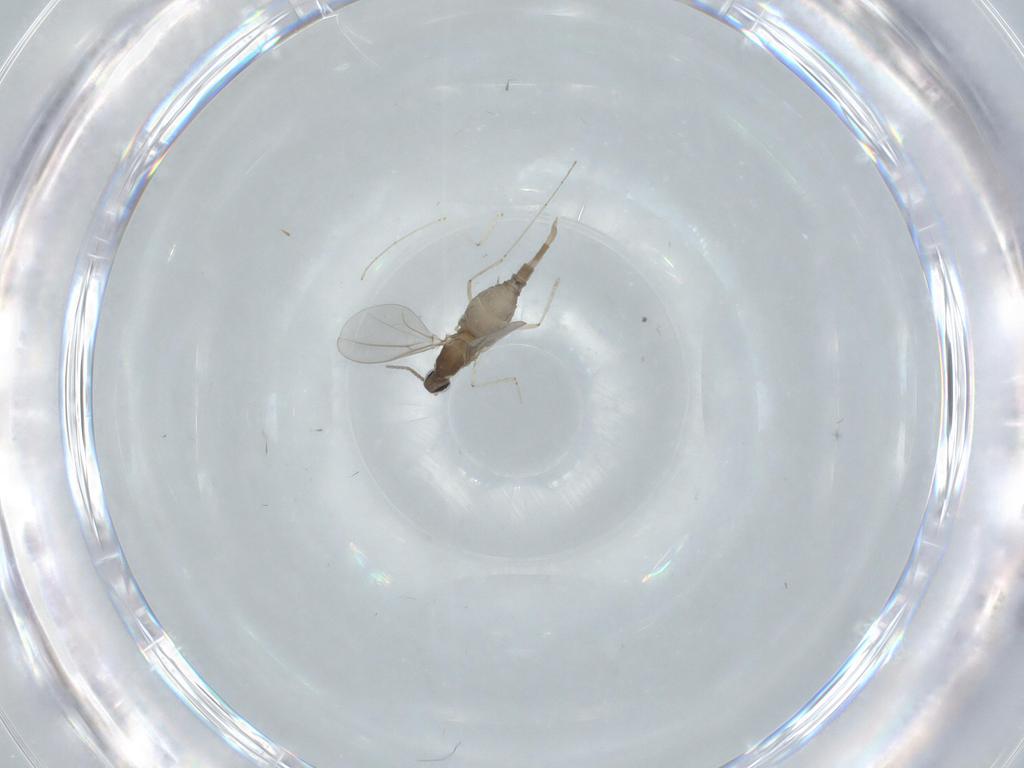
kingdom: Animalia
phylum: Arthropoda
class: Insecta
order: Diptera
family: Cecidomyiidae
